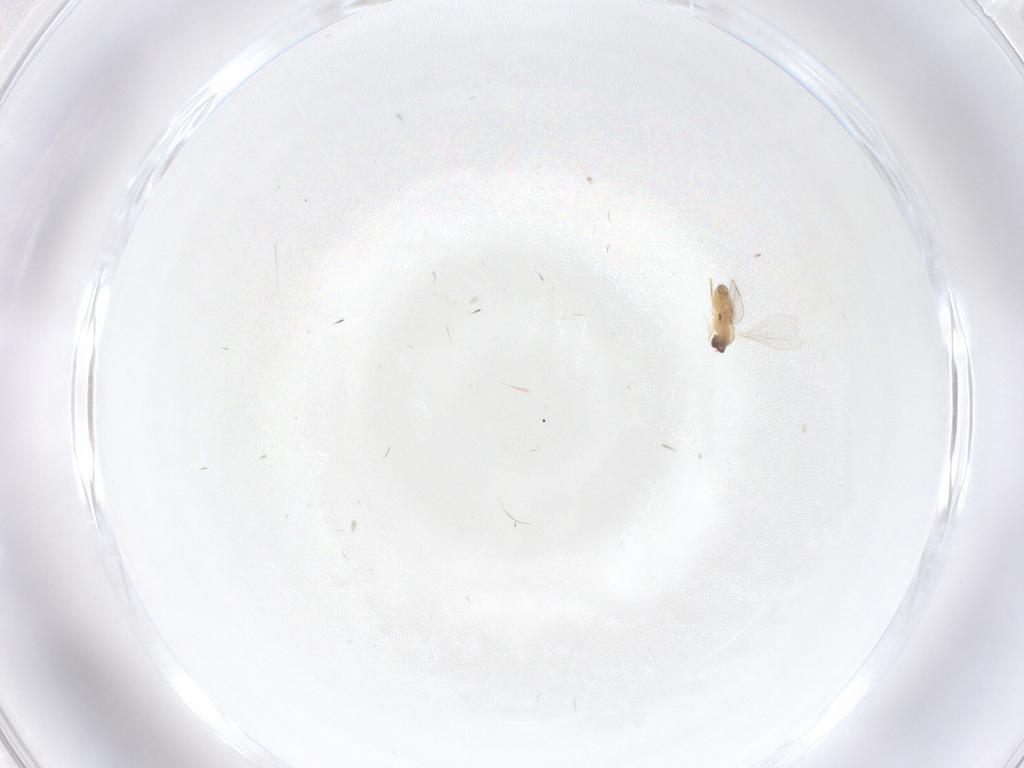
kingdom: Animalia
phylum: Arthropoda
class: Insecta
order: Diptera
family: Cecidomyiidae
